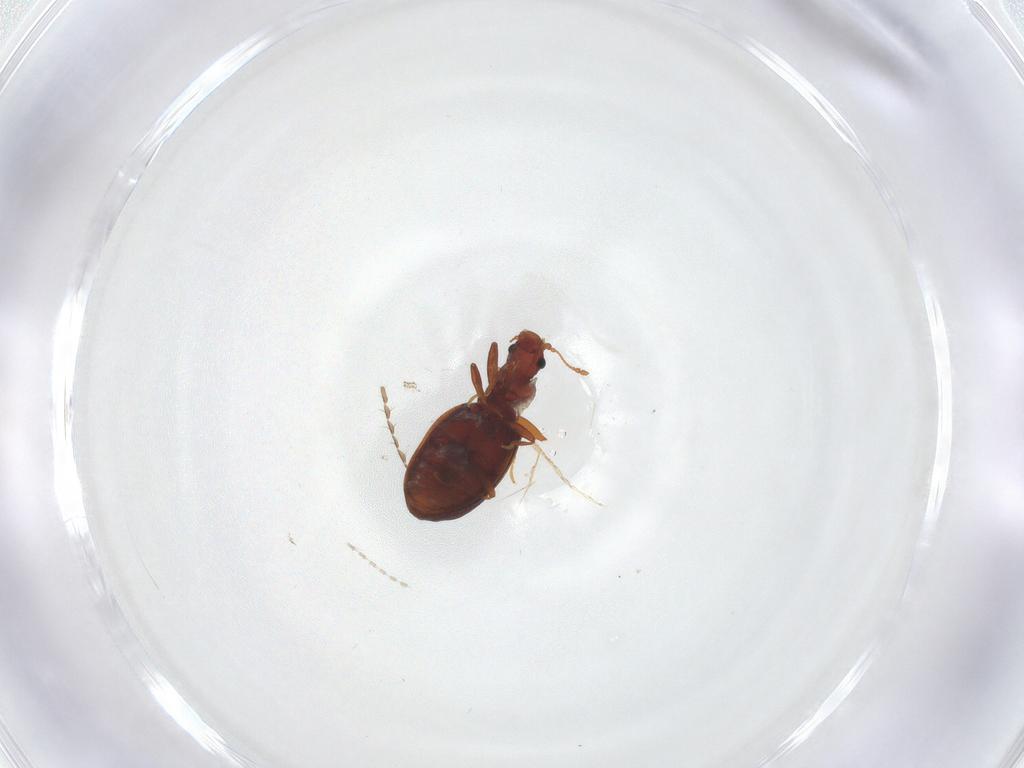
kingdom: Animalia
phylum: Arthropoda
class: Insecta
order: Coleoptera
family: Latridiidae
